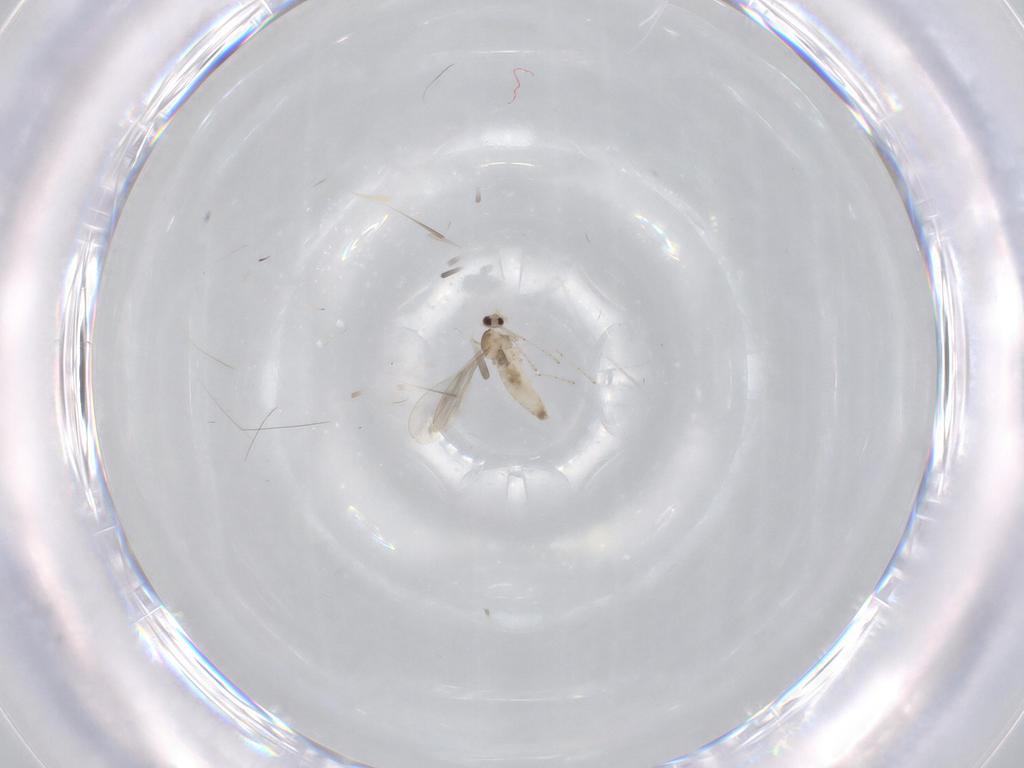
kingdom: Animalia
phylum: Arthropoda
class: Insecta
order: Diptera
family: Cecidomyiidae
